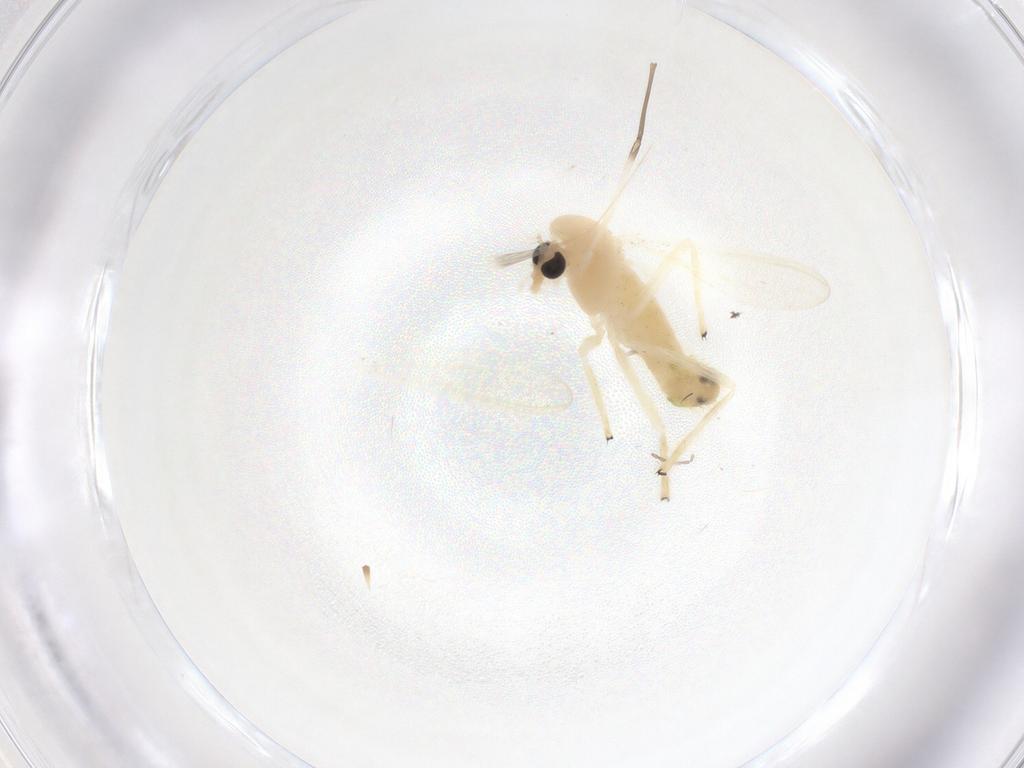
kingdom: Animalia
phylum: Arthropoda
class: Insecta
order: Diptera
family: Chironomidae
